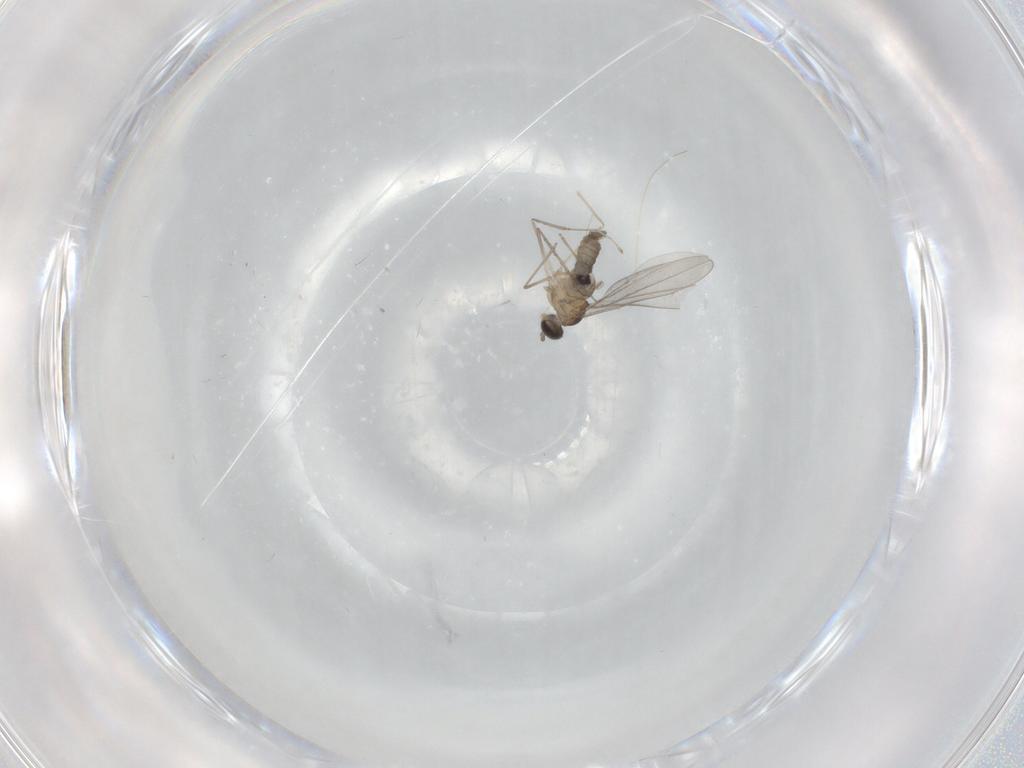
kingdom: Animalia
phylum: Arthropoda
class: Insecta
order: Diptera
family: Cecidomyiidae
